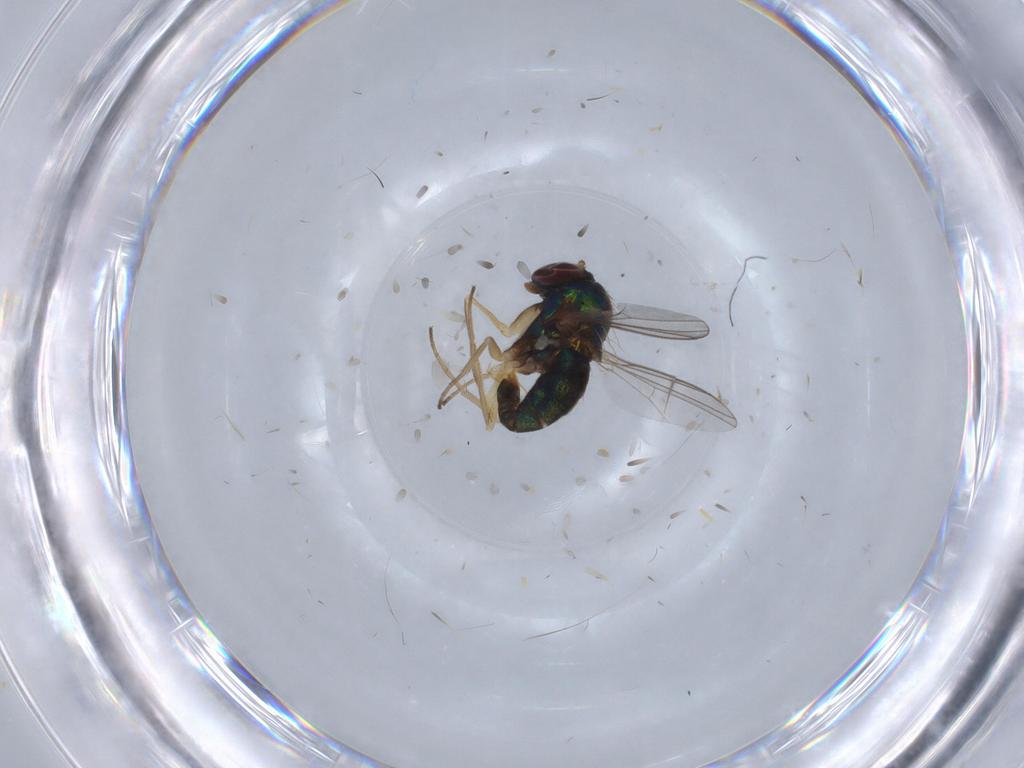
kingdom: Animalia
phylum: Arthropoda
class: Insecta
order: Diptera
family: Dolichopodidae
